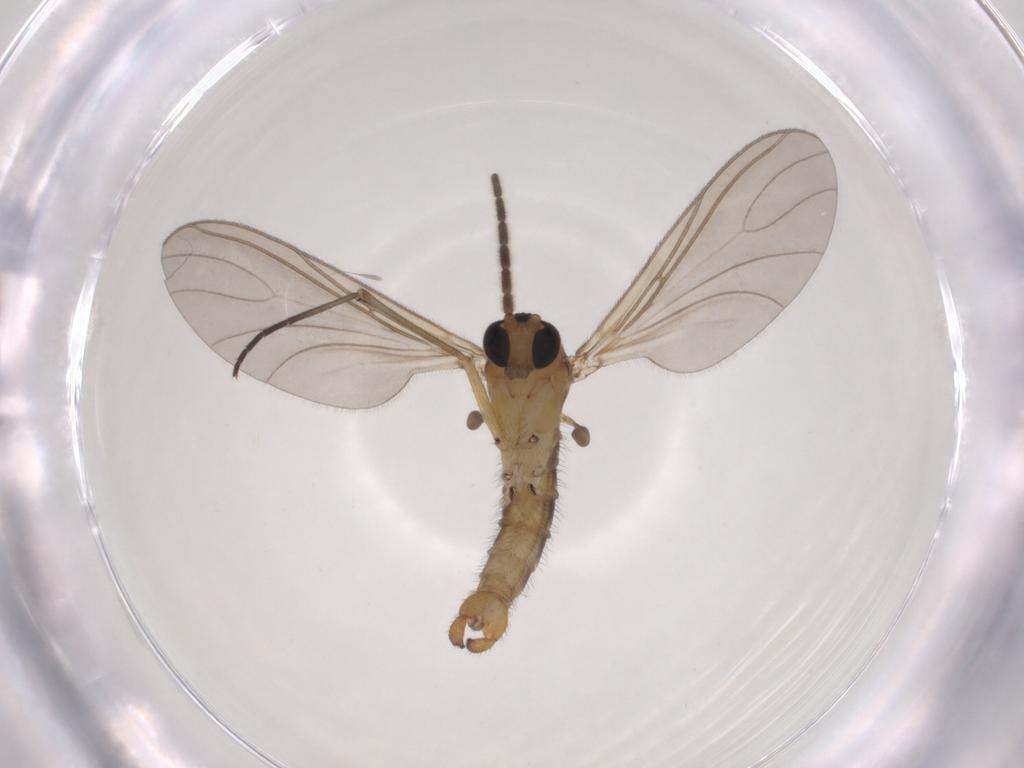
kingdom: Animalia
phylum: Arthropoda
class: Insecta
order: Diptera
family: Sciaridae
